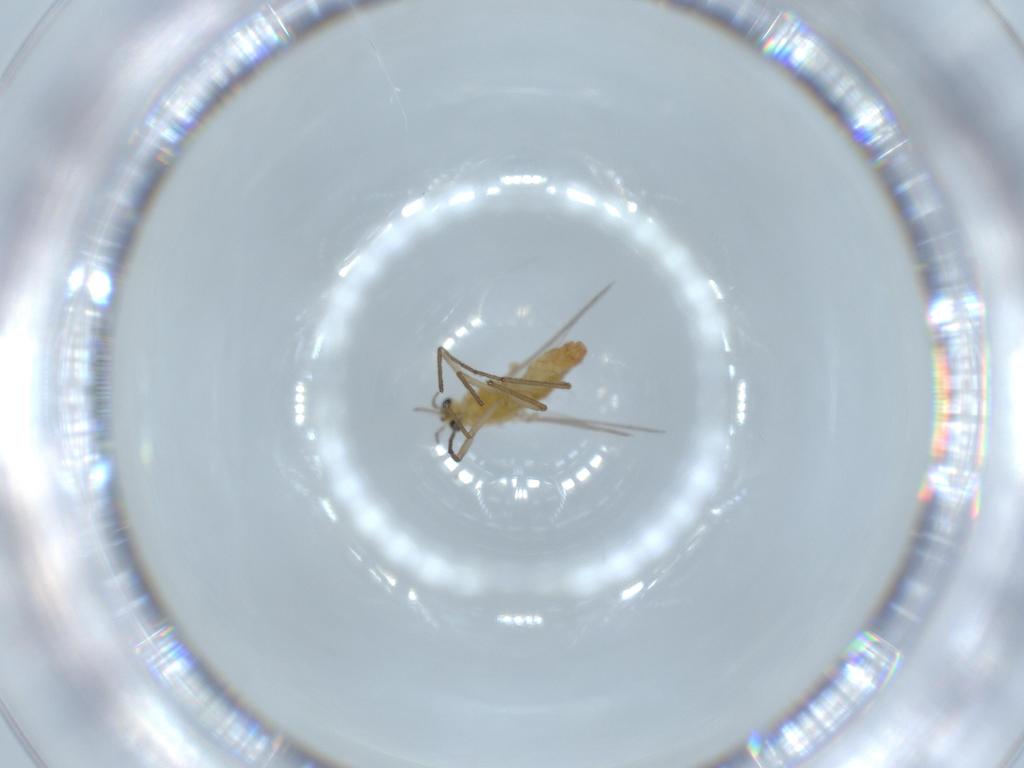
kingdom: Animalia
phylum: Arthropoda
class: Insecta
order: Diptera
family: Sciaridae
